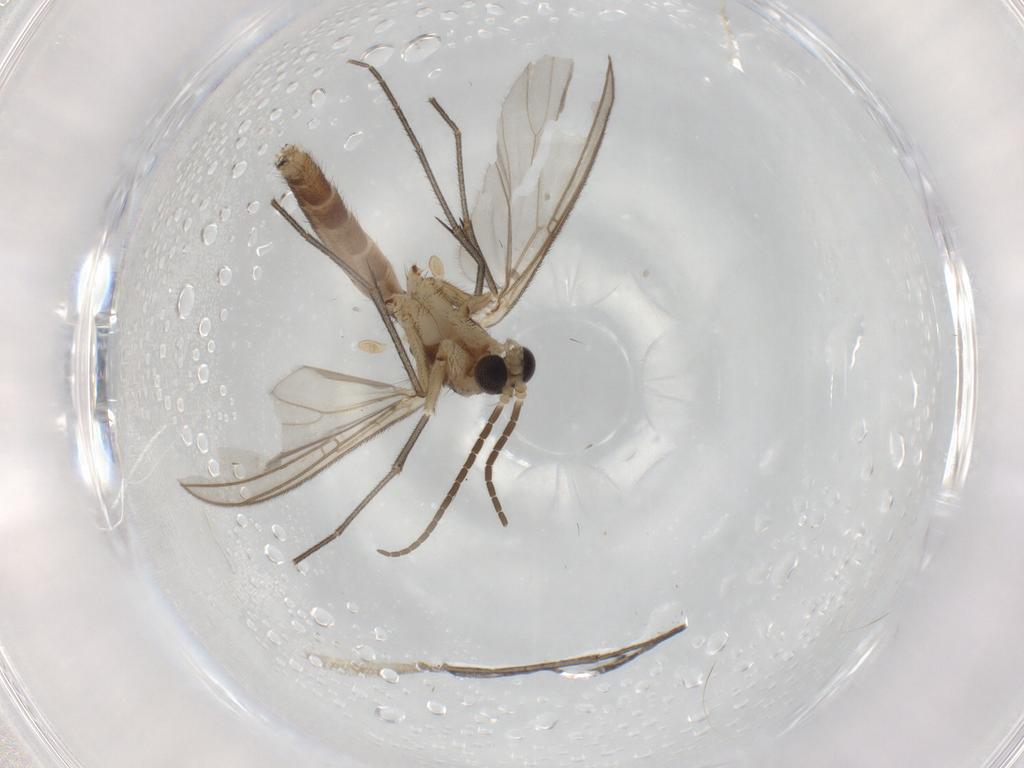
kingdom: Animalia
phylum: Arthropoda
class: Insecta
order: Diptera
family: Mycetophilidae
